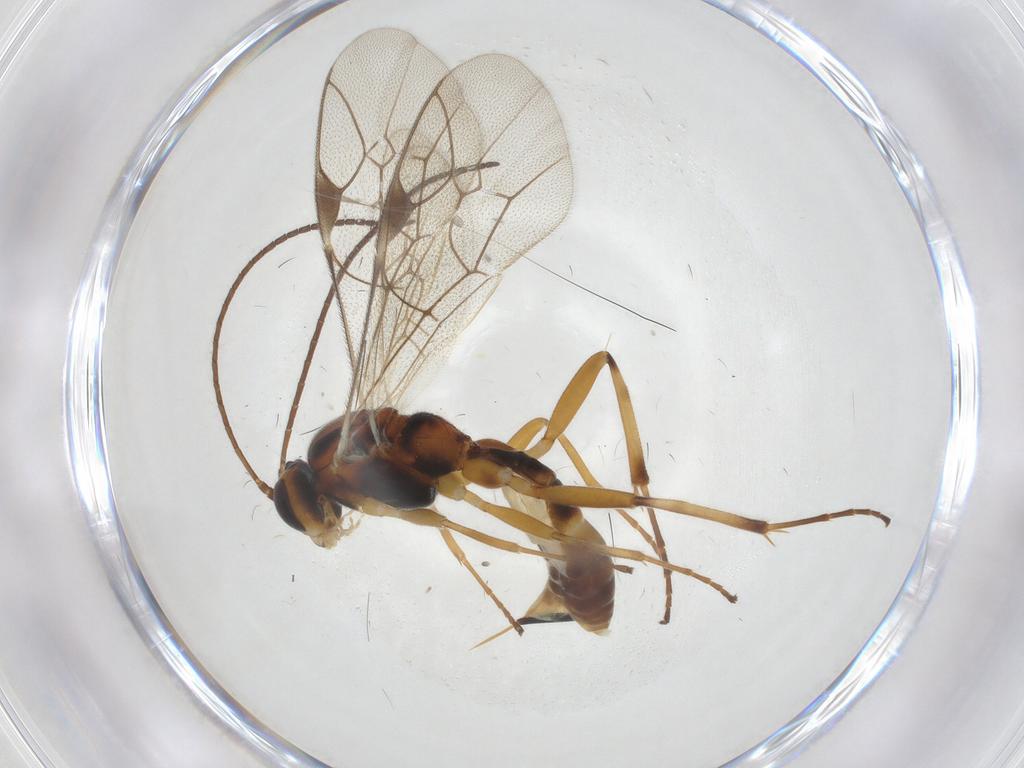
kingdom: Animalia
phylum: Arthropoda
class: Insecta
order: Hymenoptera
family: Ichneumonidae
